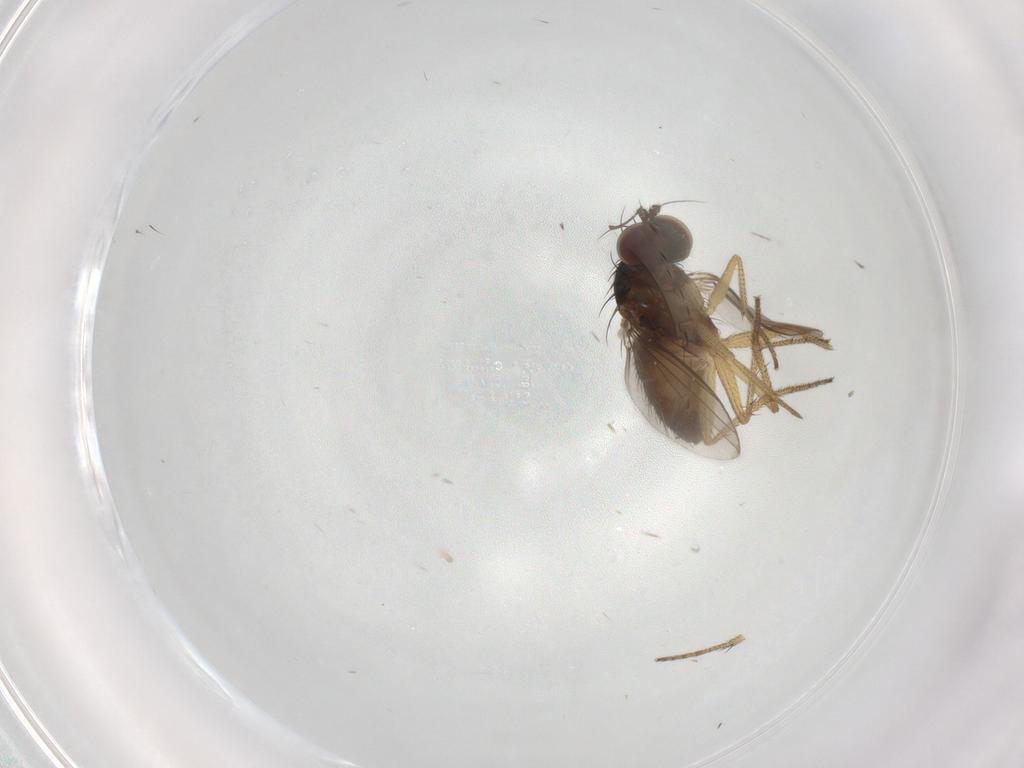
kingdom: Animalia
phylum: Arthropoda
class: Insecta
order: Diptera
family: Dolichopodidae
